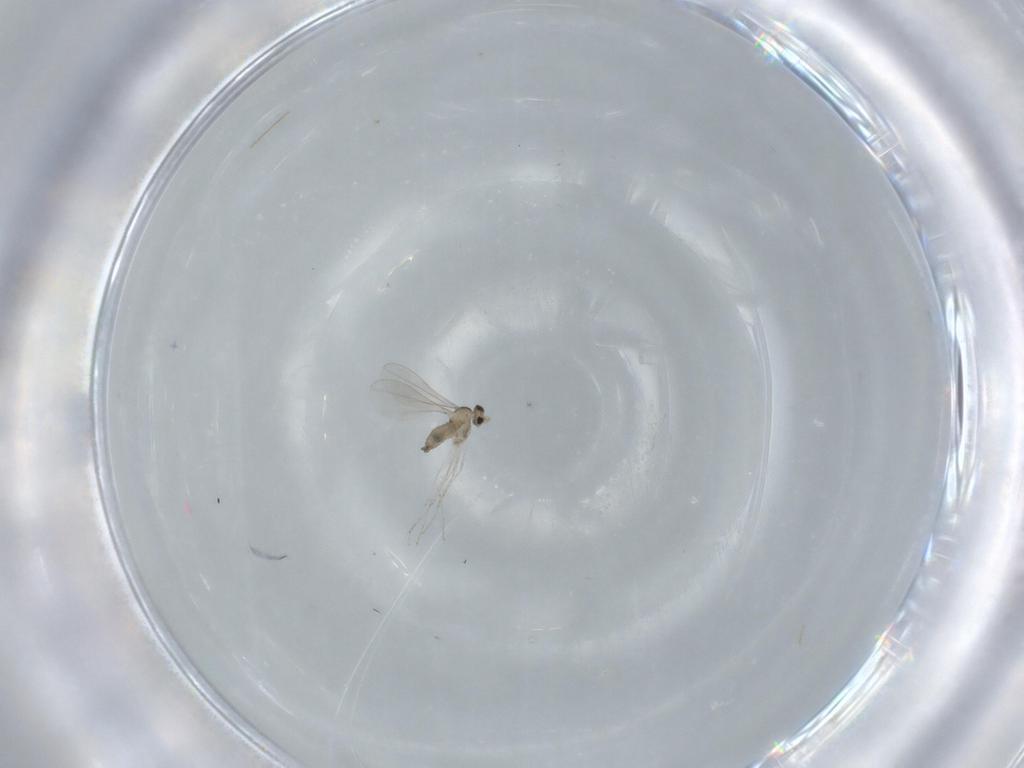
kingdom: Animalia
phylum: Arthropoda
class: Insecta
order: Diptera
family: Cecidomyiidae
